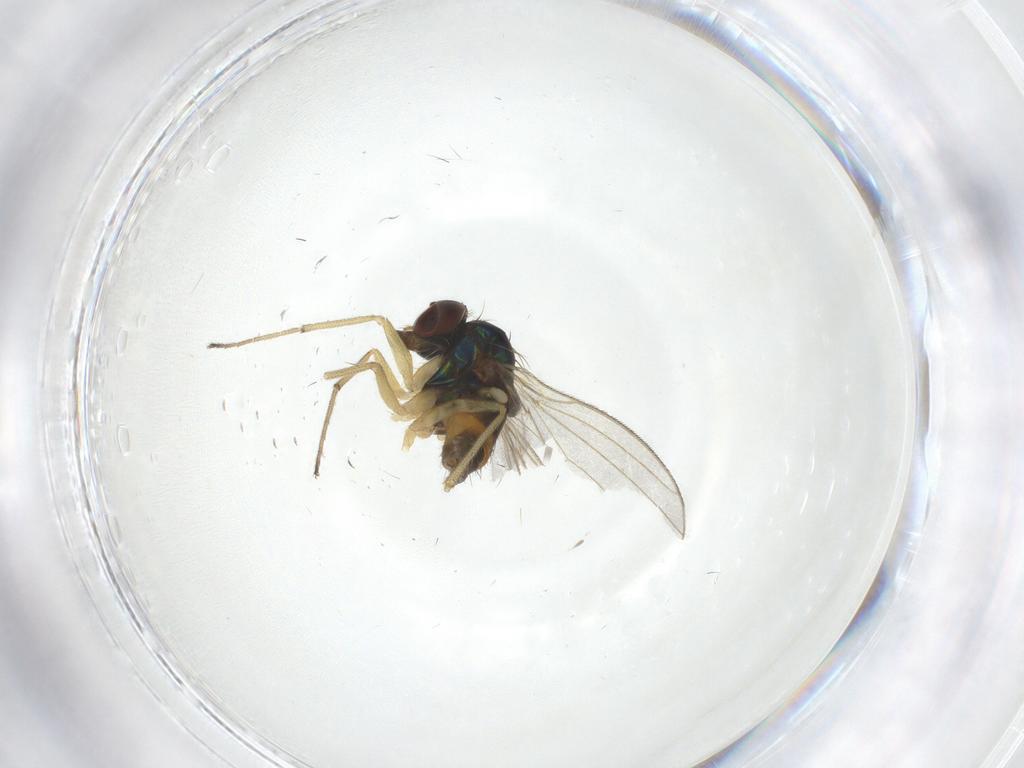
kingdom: Animalia
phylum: Arthropoda
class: Insecta
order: Diptera
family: Dolichopodidae
